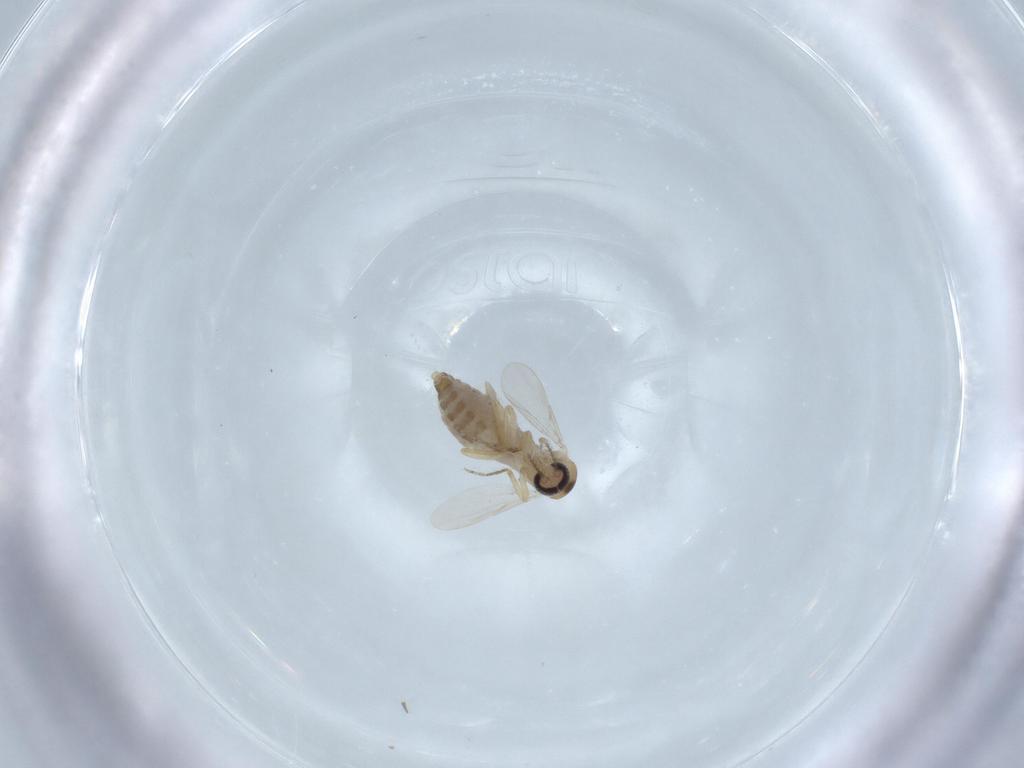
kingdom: Animalia
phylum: Arthropoda
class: Insecta
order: Diptera
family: Ceratopogonidae
